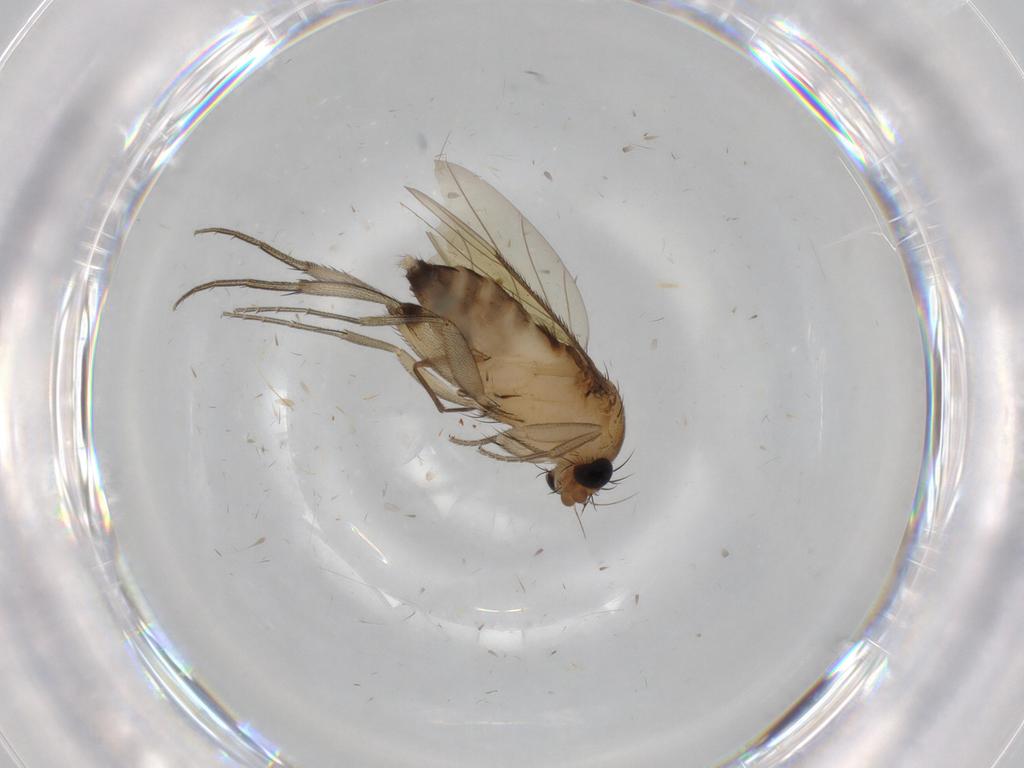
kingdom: Animalia
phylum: Arthropoda
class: Insecta
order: Diptera
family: Phoridae
